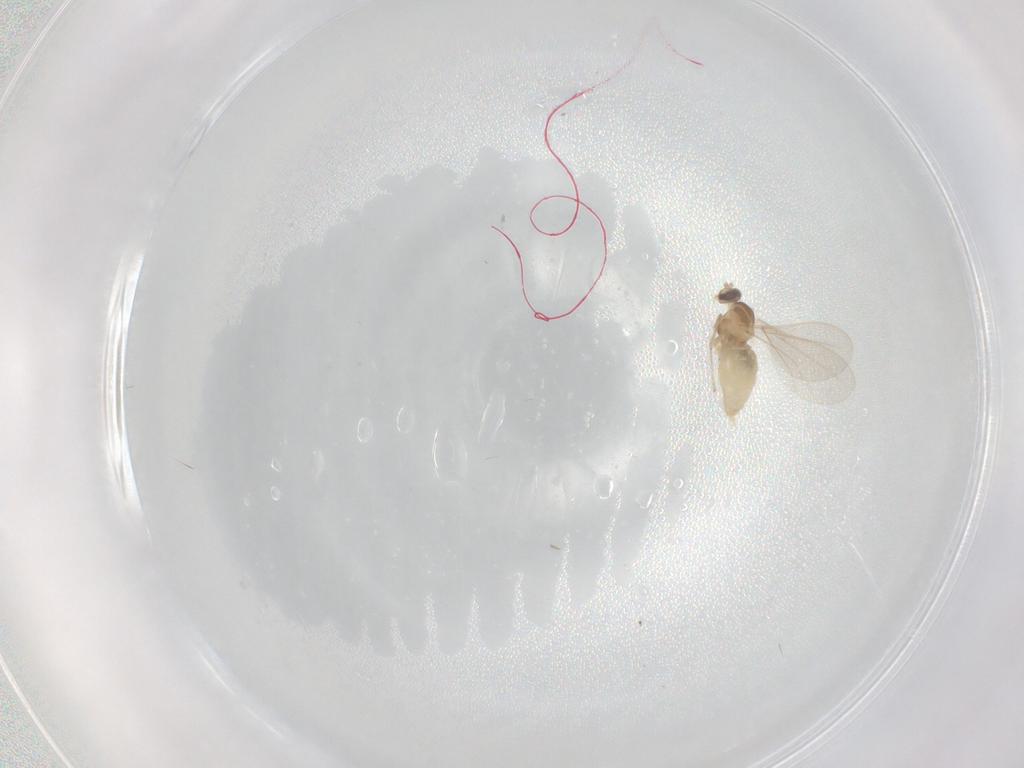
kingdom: Animalia
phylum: Arthropoda
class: Insecta
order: Diptera
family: Cecidomyiidae
